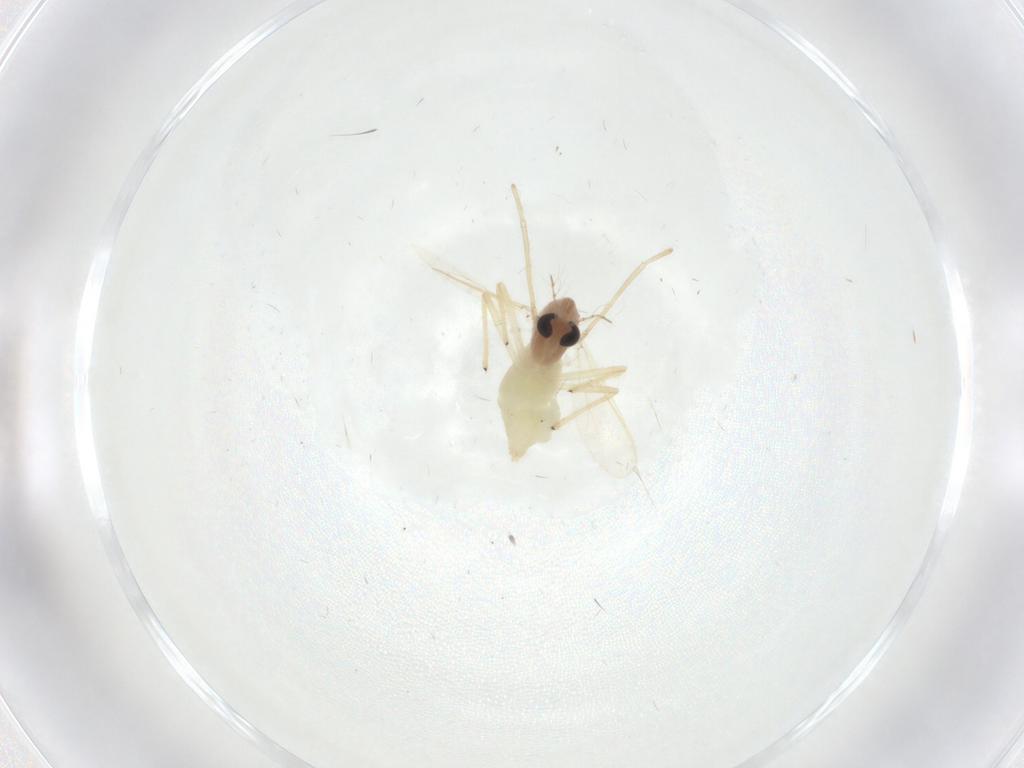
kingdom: Animalia
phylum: Arthropoda
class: Insecta
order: Diptera
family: Chironomidae
